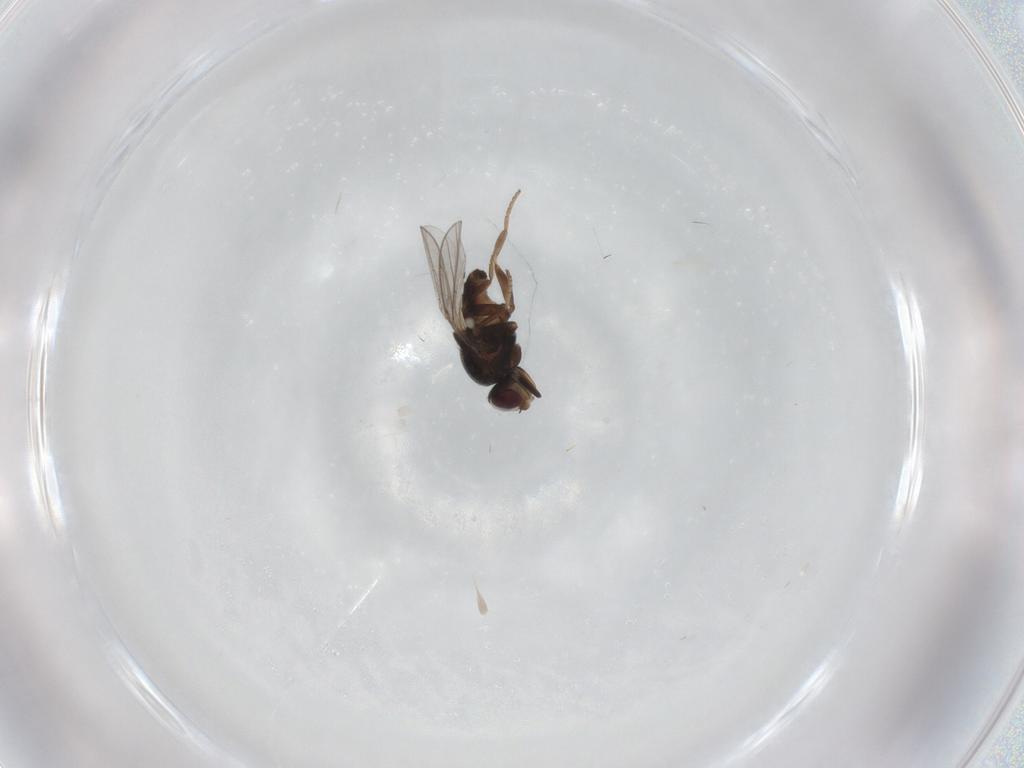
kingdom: Animalia
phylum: Arthropoda
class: Insecta
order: Diptera
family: Chloropidae
